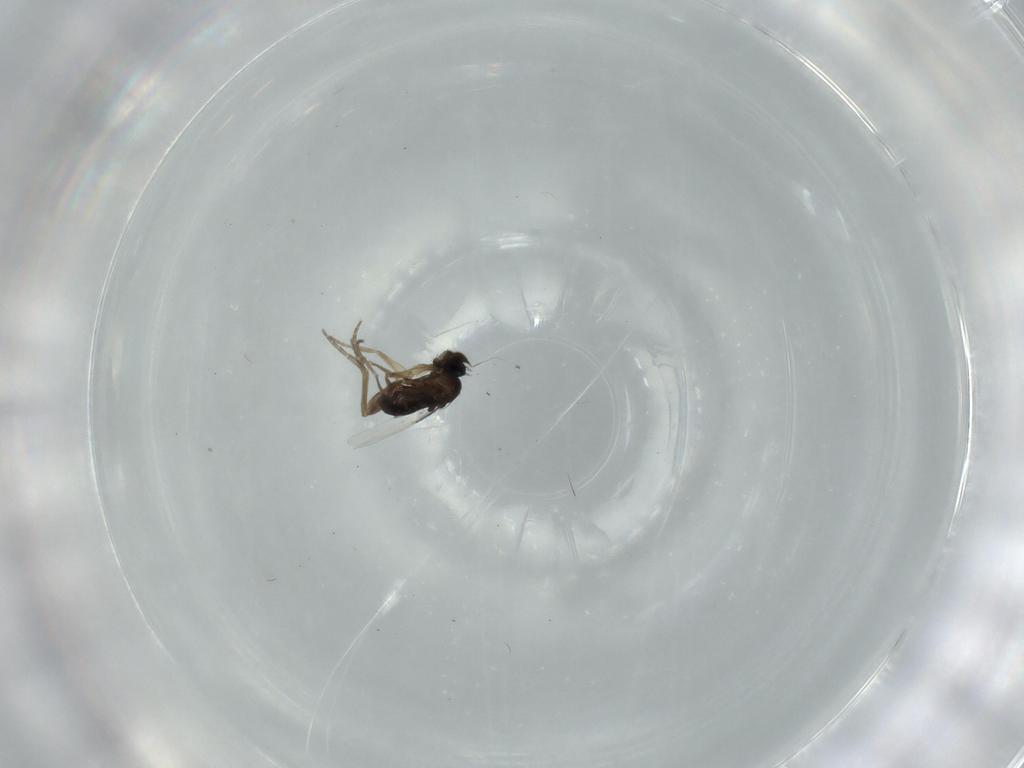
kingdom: Animalia
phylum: Arthropoda
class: Insecta
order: Diptera
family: Phoridae
